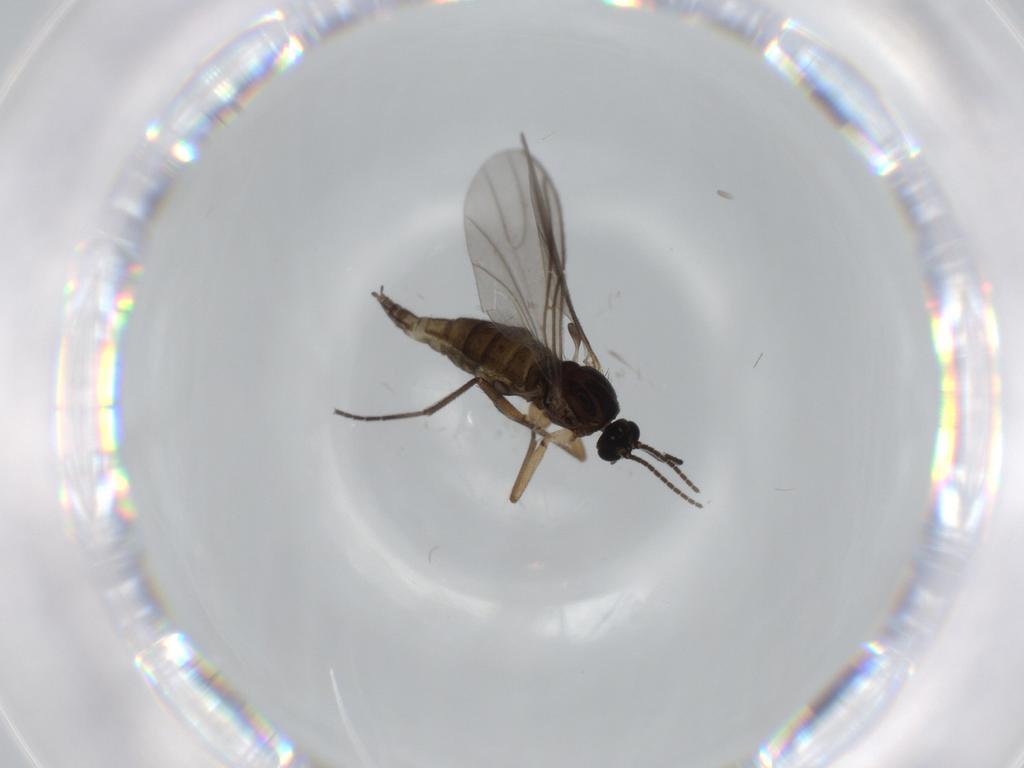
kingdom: Animalia
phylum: Arthropoda
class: Insecta
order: Diptera
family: Sciaridae
